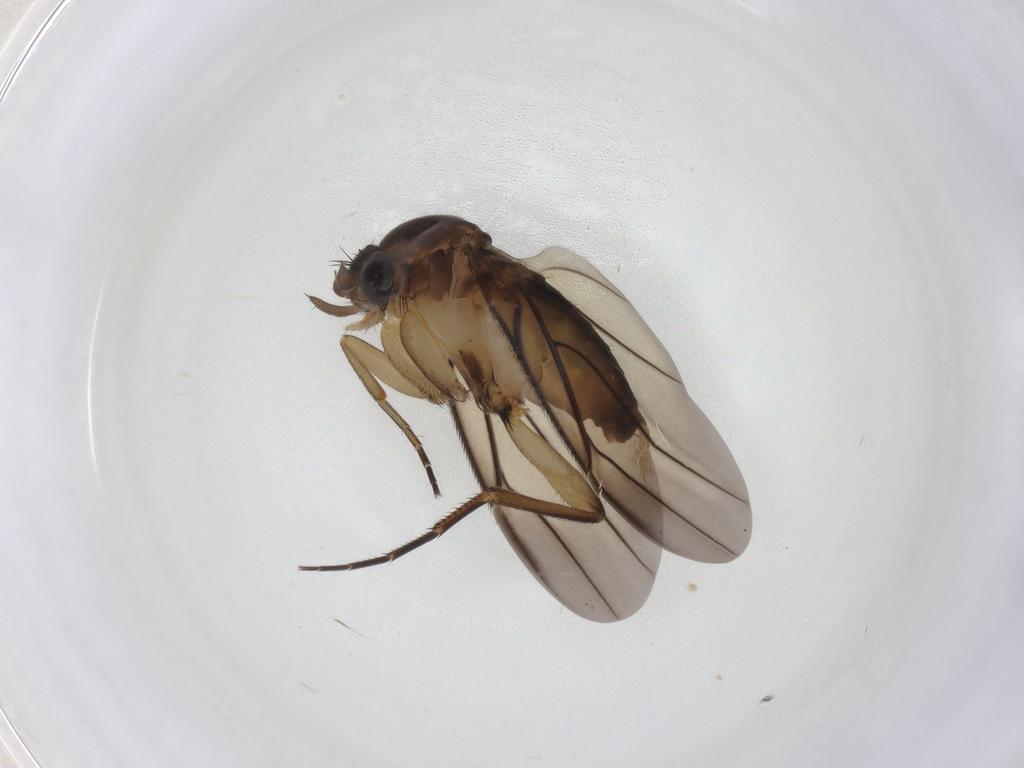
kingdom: Animalia
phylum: Arthropoda
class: Insecta
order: Diptera
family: Phoridae
